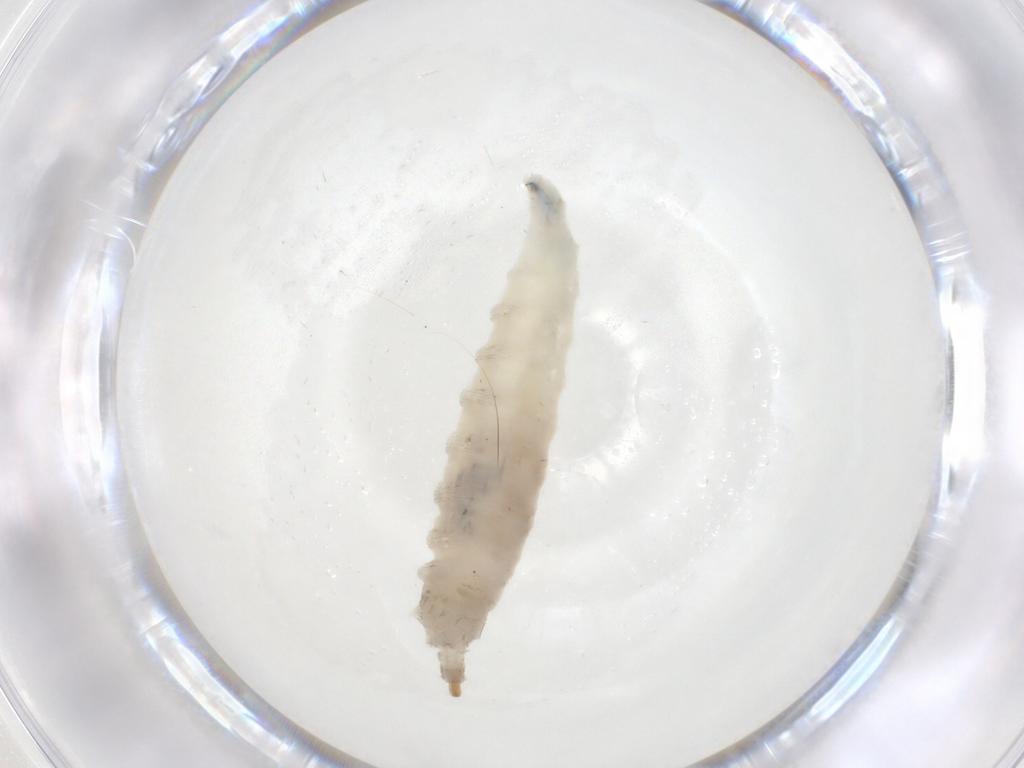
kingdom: Animalia
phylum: Arthropoda
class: Insecta
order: Diptera
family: Drosophilidae
